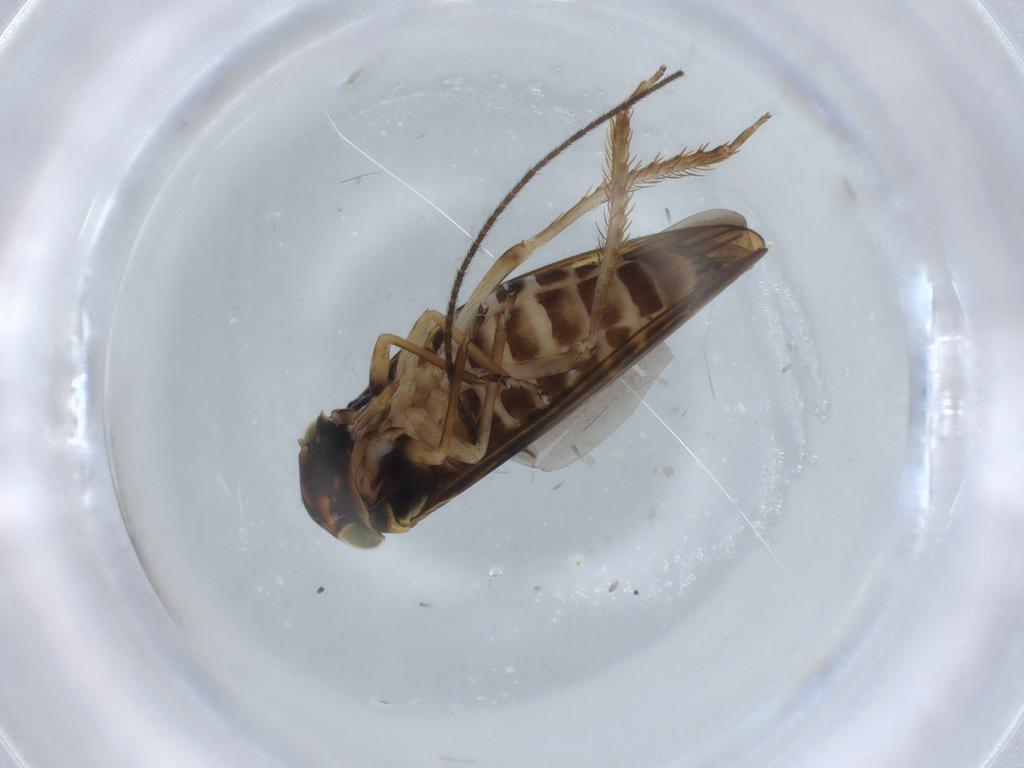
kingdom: Animalia
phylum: Arthropoda
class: Insecta
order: Hemiptera
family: Cicadellidae
